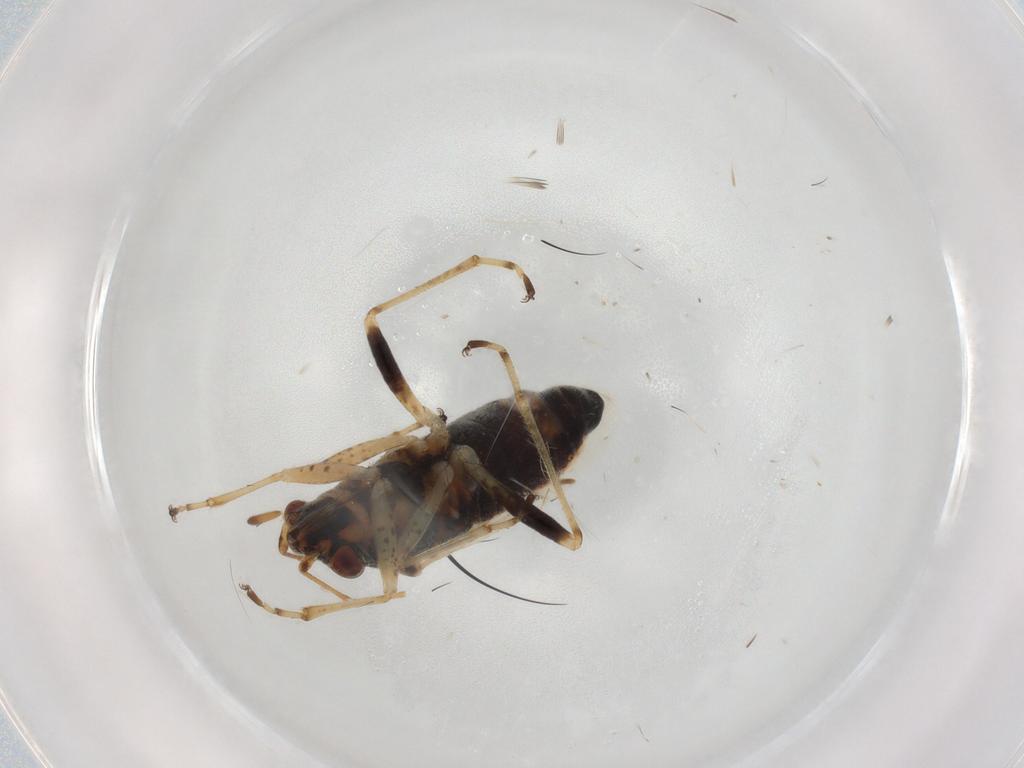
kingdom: Animalia
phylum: Arthropoda
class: Insecta
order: Hemiptera
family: Lygaeidae
